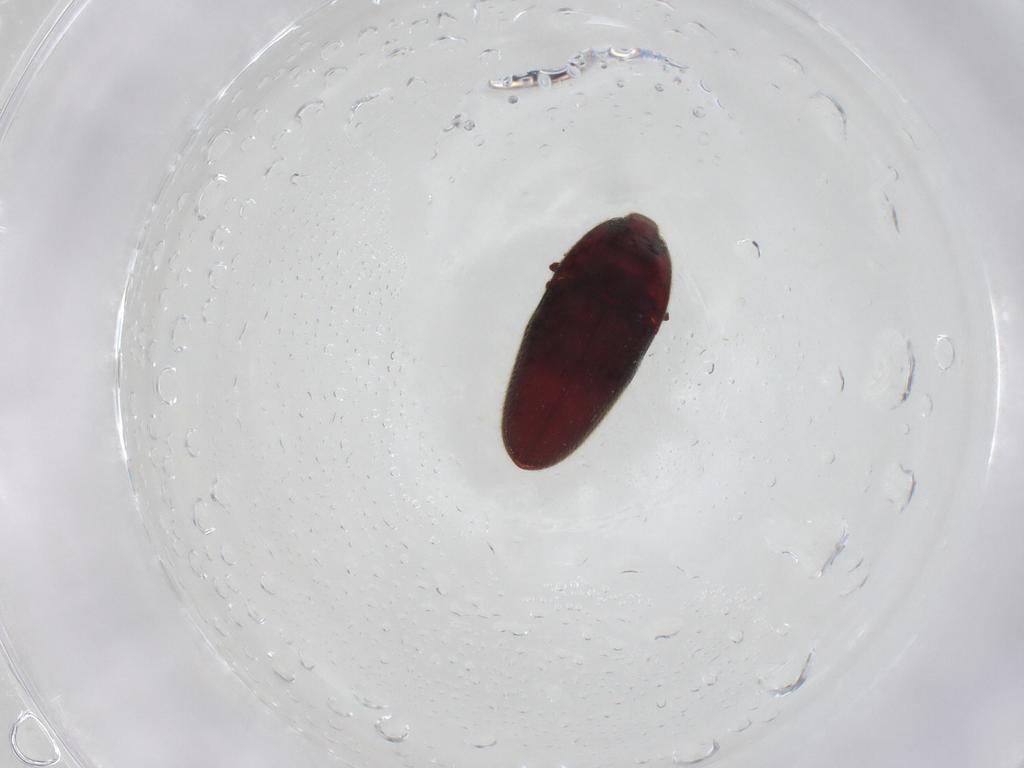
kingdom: Animalia
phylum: Arthropoda
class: Insecta
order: Coleoptera
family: Throscidae
